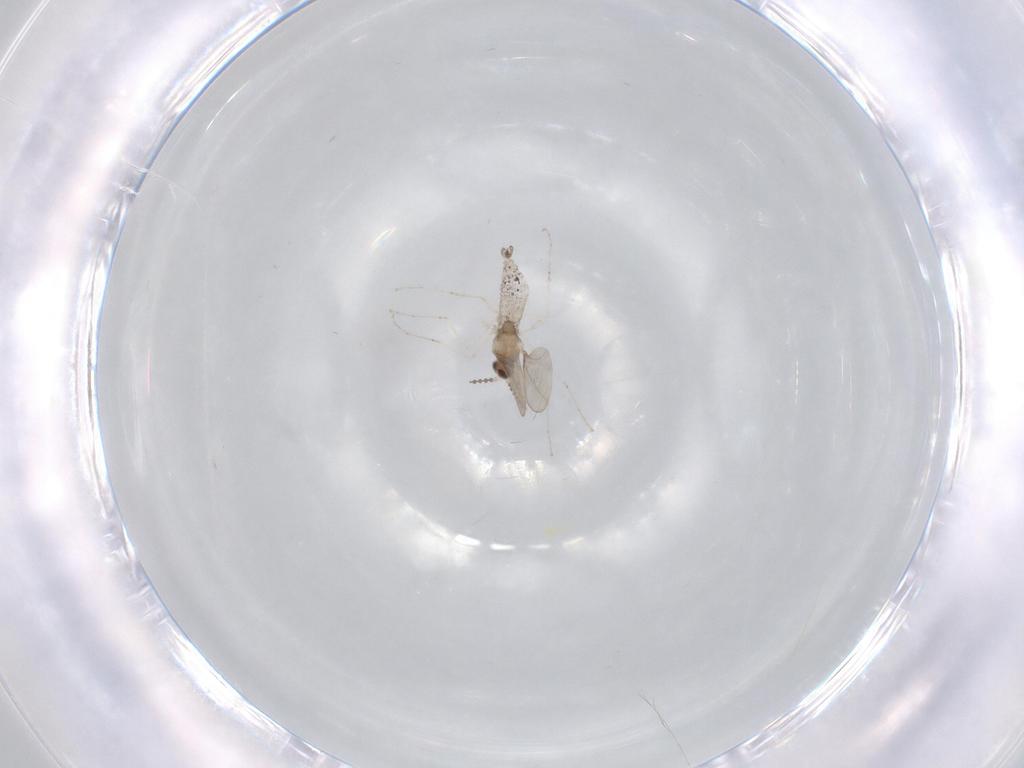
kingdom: Animalia
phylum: Arthropoda
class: Insecta
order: Diptera
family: Cecidomyiidae
